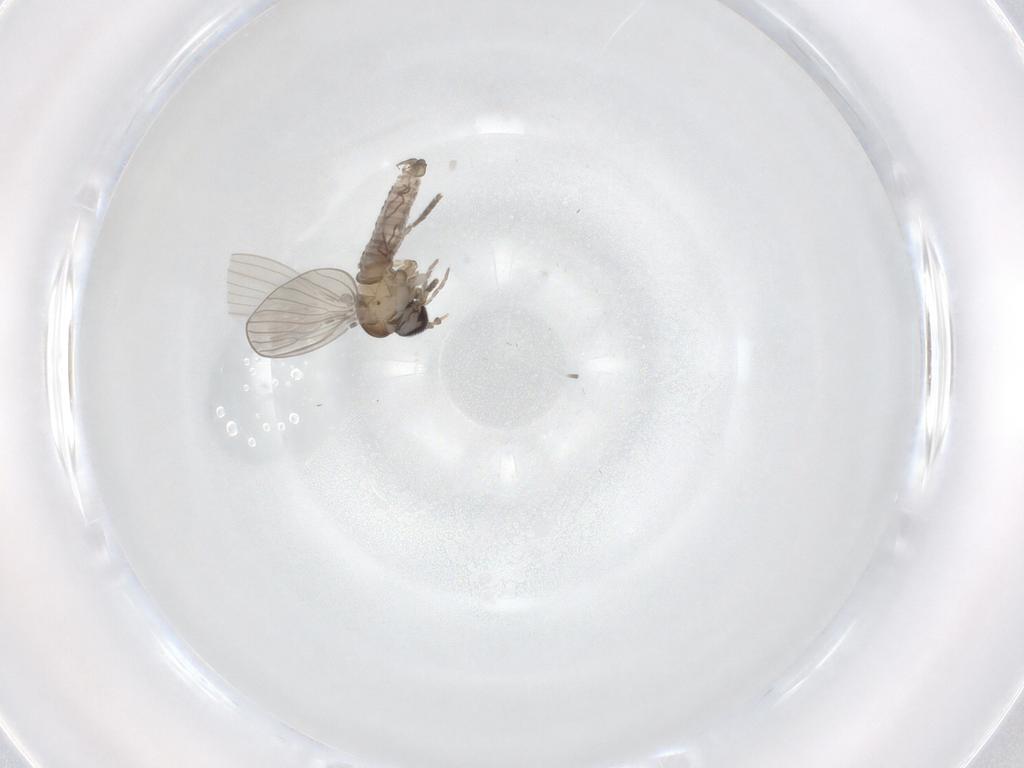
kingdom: Animalia
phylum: Arthropoda
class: Insecta
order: Diptera
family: Psychodidae
